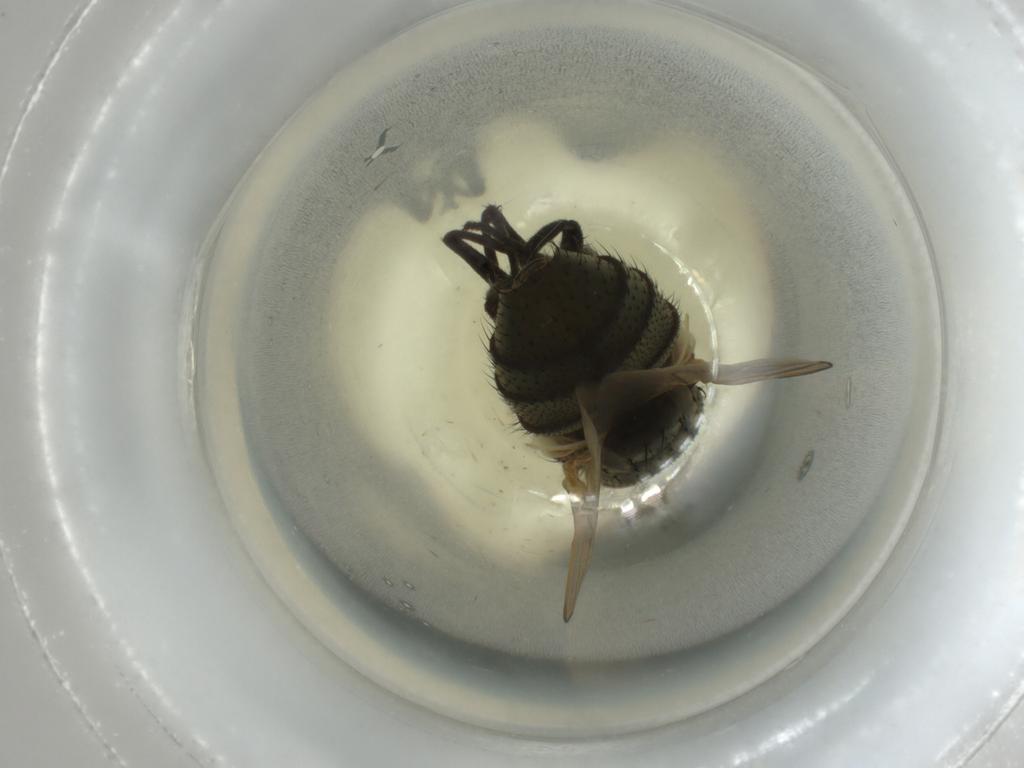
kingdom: Animalia
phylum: Arthropoda
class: Insecta
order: Diptera
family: Muscidae
